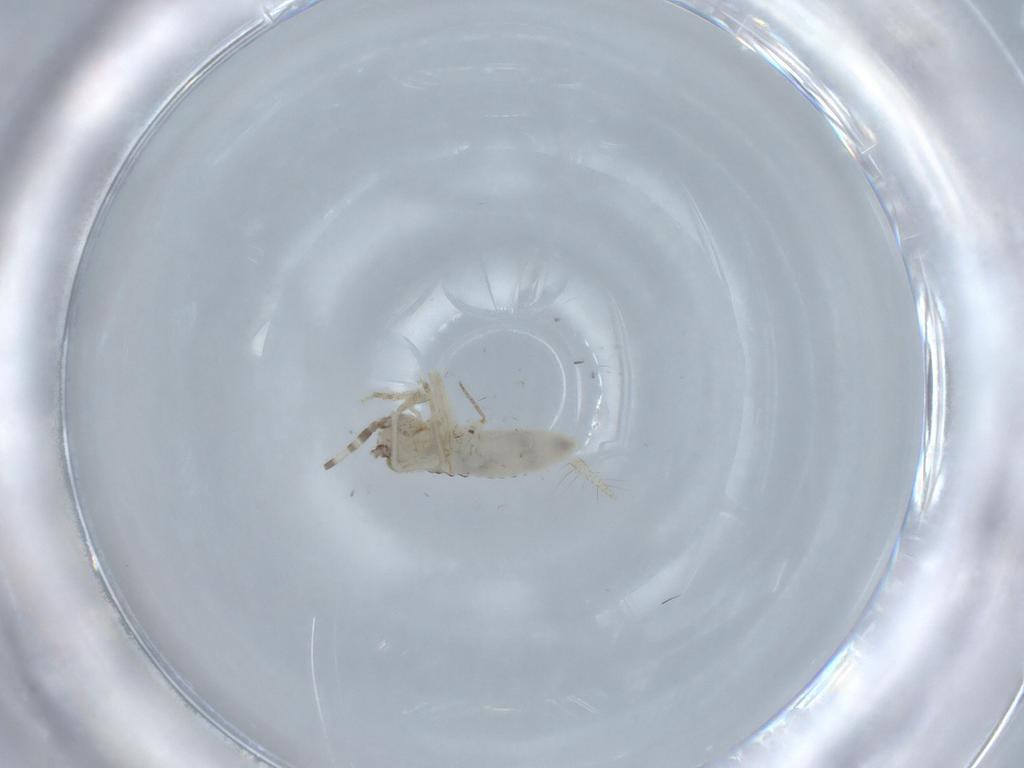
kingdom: Animalia
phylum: Arthropoda
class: Insecta
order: Orthoptera
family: Trigonidiidae
